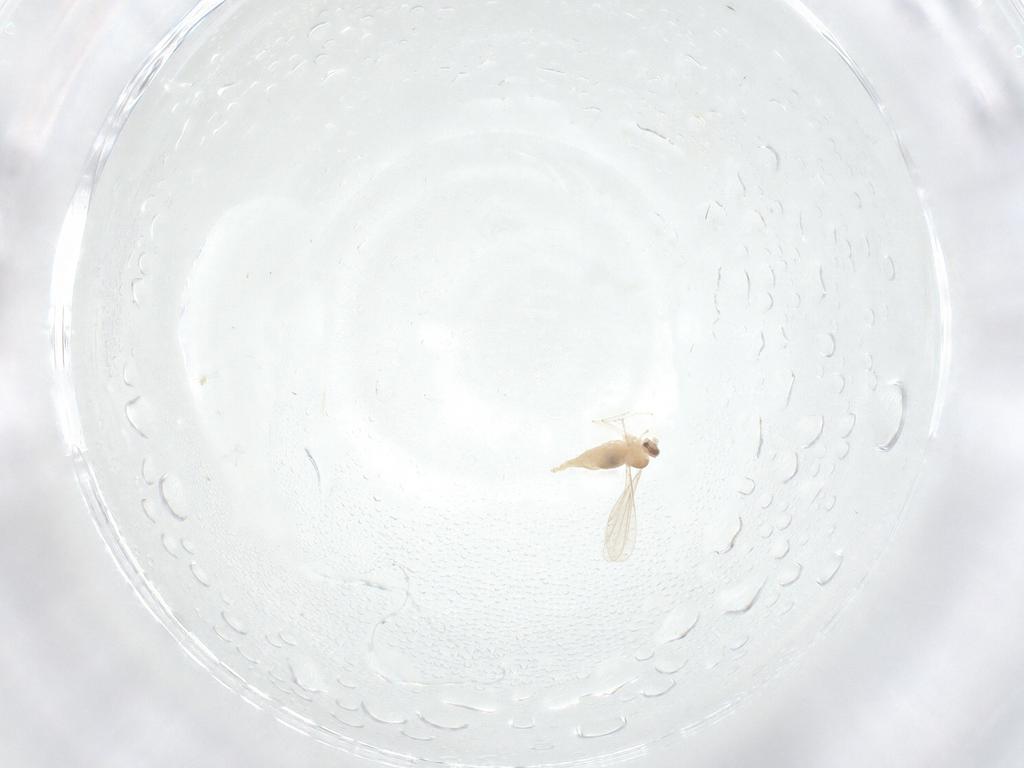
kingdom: Animalia
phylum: Arthropoda
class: Insecta
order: Diptera
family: Cecidomyiidae
